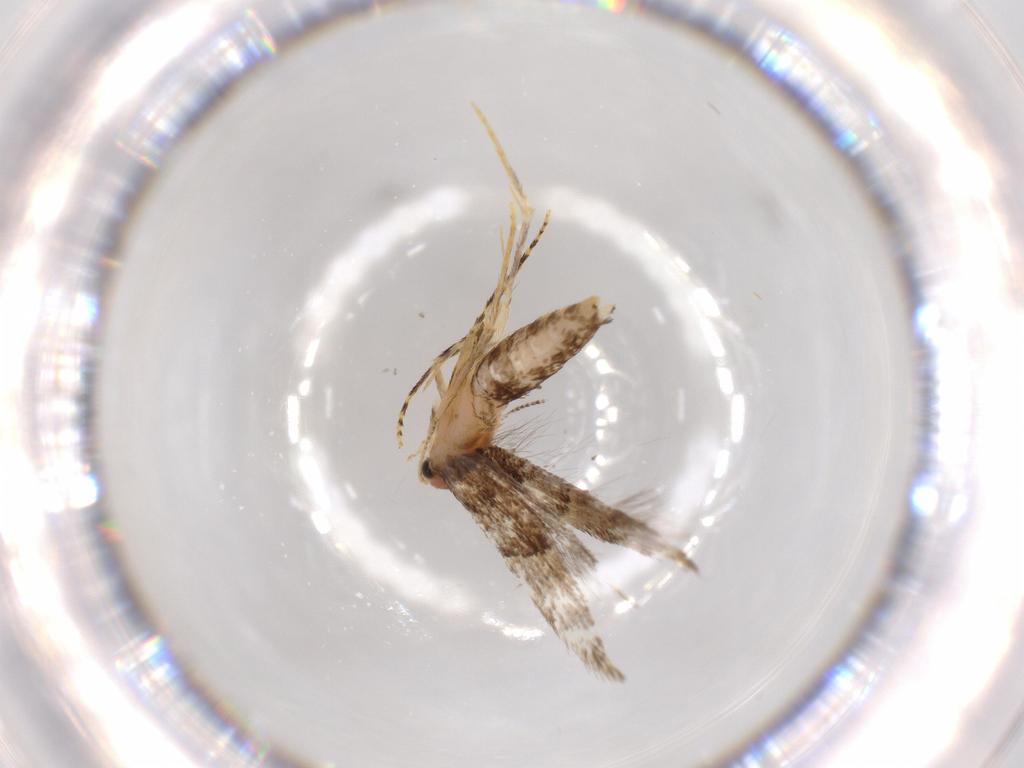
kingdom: Animalia
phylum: Arthropoda
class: Insecta
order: Lepidoptera
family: Tineidae
